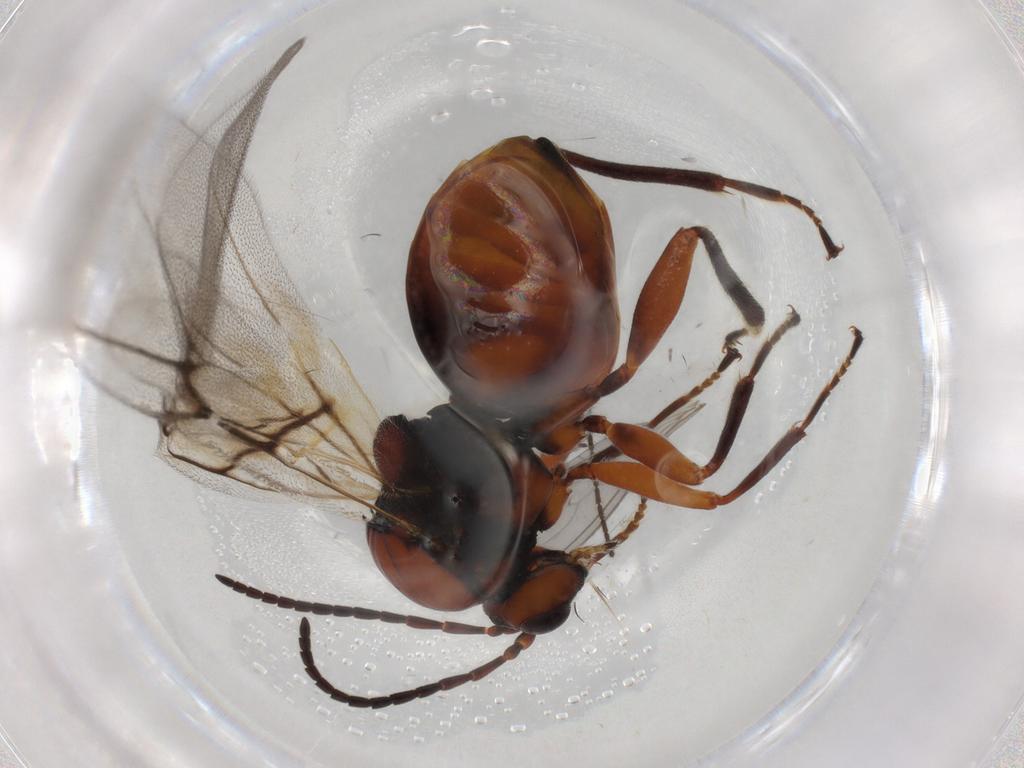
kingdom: Animalia
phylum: Arthropoda
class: Insecta
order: Hymenoptera
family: Cynipidae
